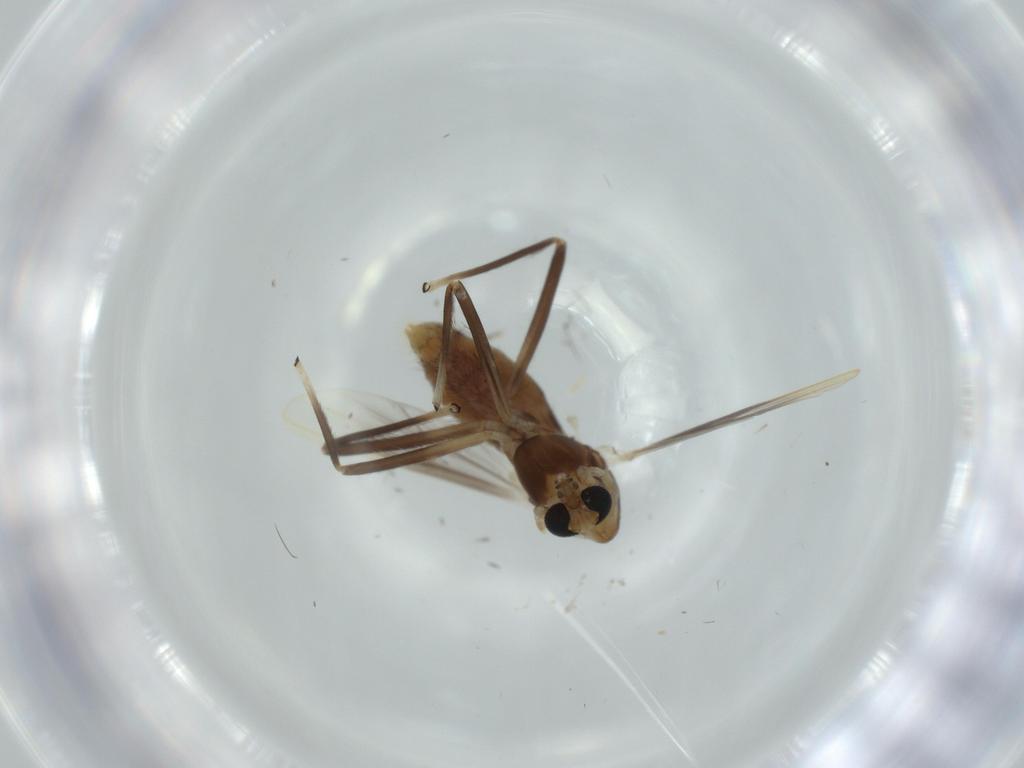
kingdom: Animalia
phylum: Arthropoda
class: Insecta
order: Diptera
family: Chironomidae
